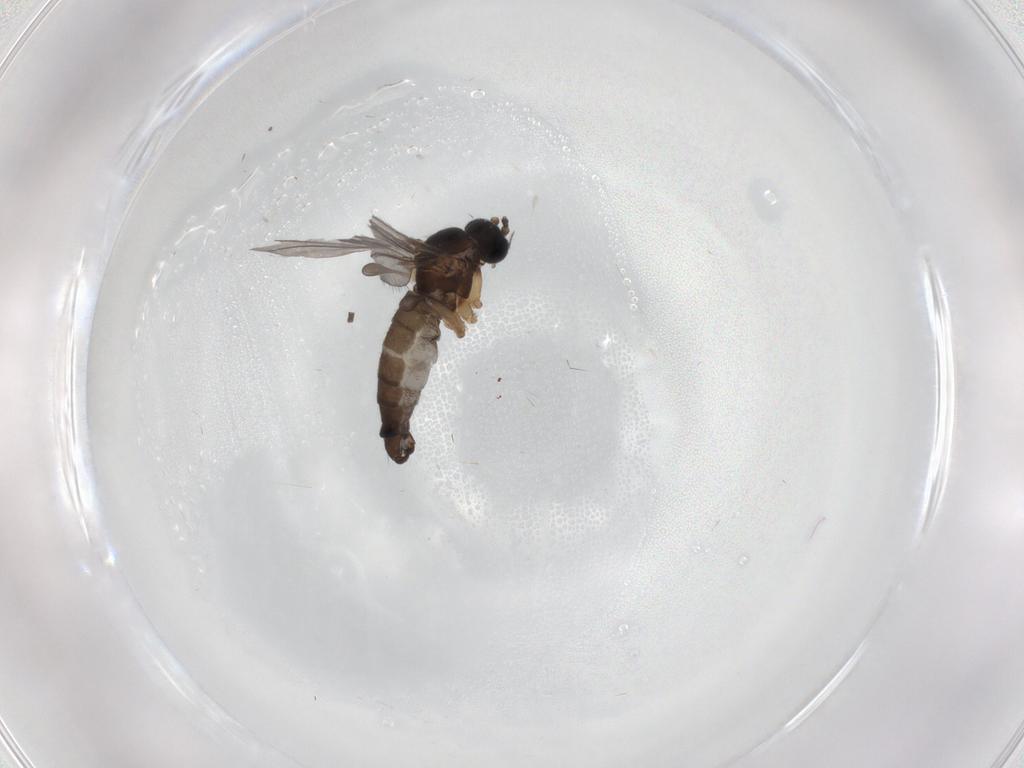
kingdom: Animalia
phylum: Arthropoda
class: Insecta
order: Diptera
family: Sciaridae
